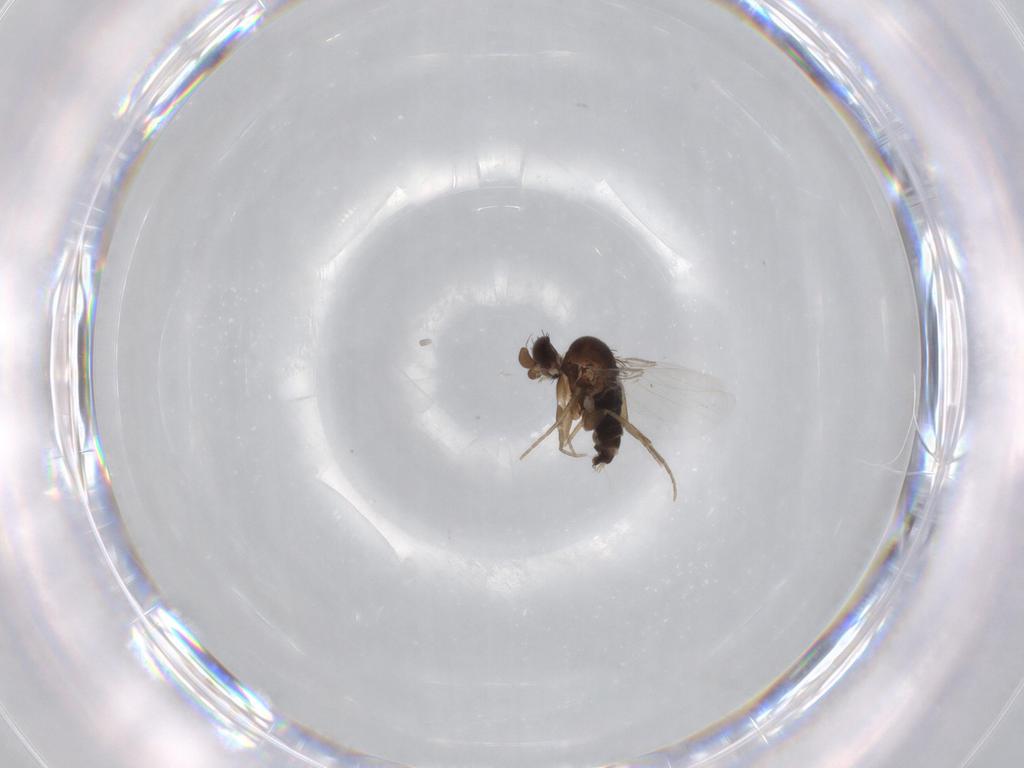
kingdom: Animalia
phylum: Arthropoda
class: Insecta
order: Diptera
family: Phoridae
